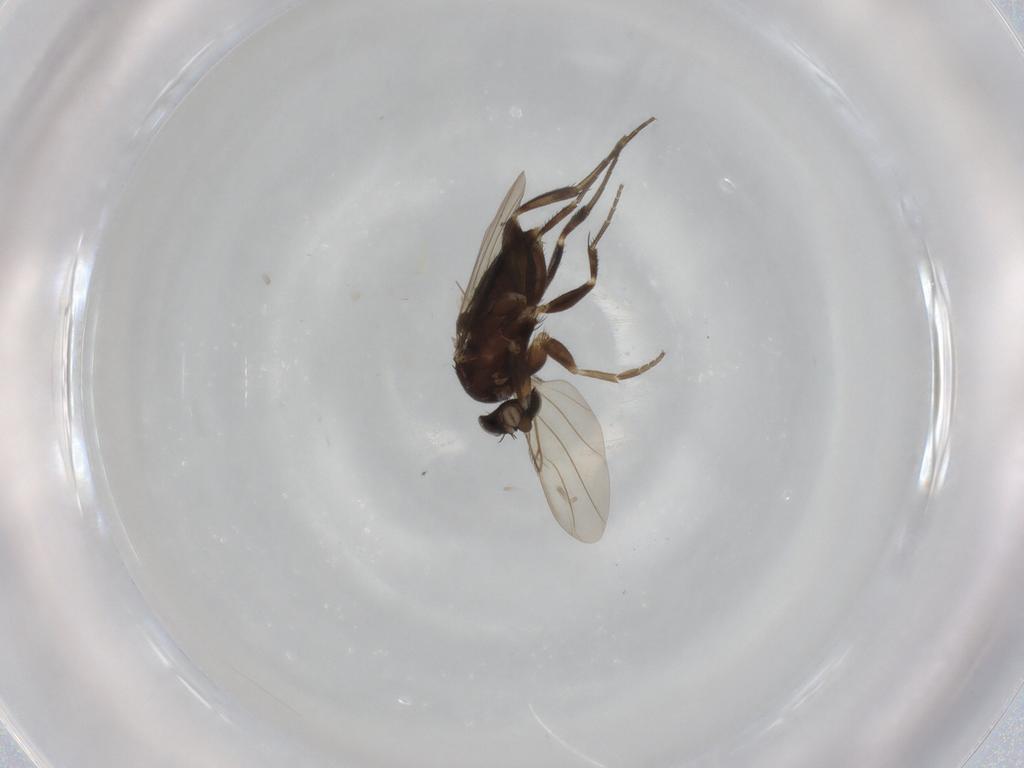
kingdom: Animalia
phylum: Arthropoda
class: Insecta
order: Diptera
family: Phoridae
